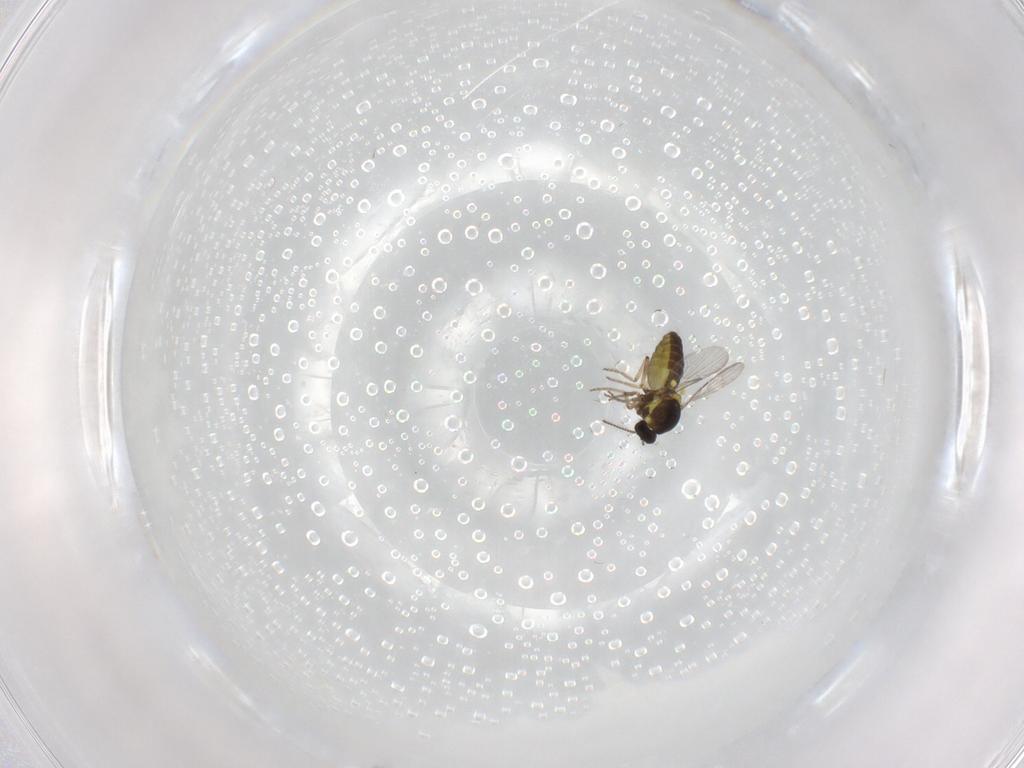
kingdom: Animalia
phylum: Arthropoda
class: Insecta
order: Diptera
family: Ceratopogonidae
